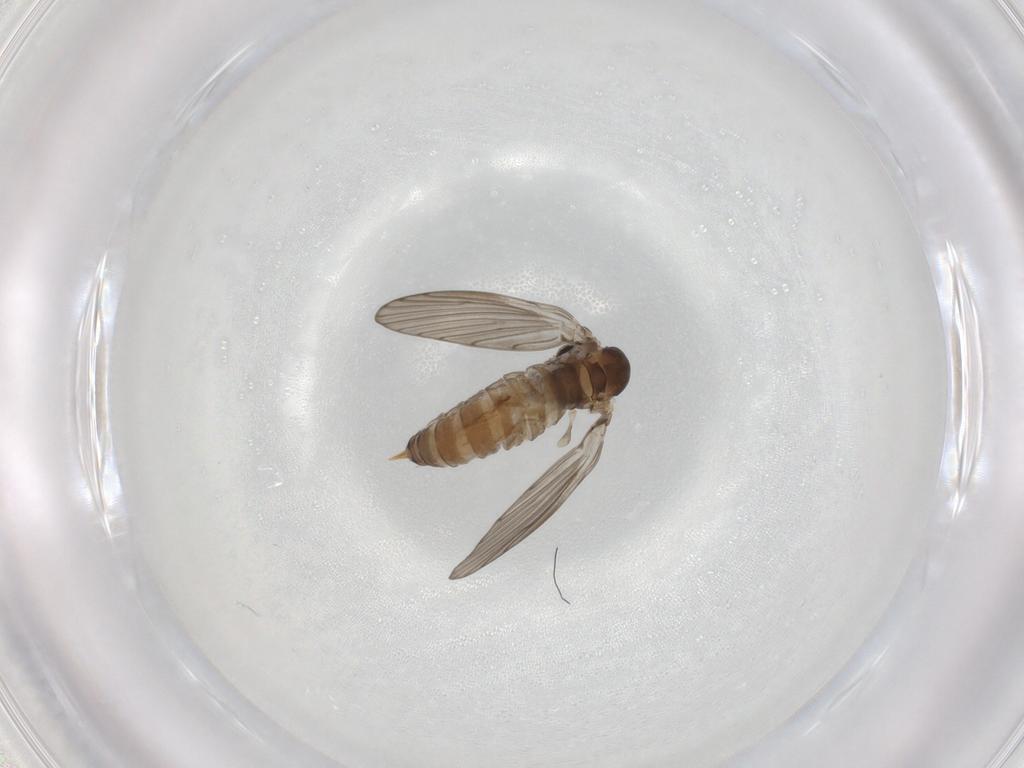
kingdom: Animalia
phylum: Arthropoda
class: Insecta
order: Diptera
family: Psychodidae
